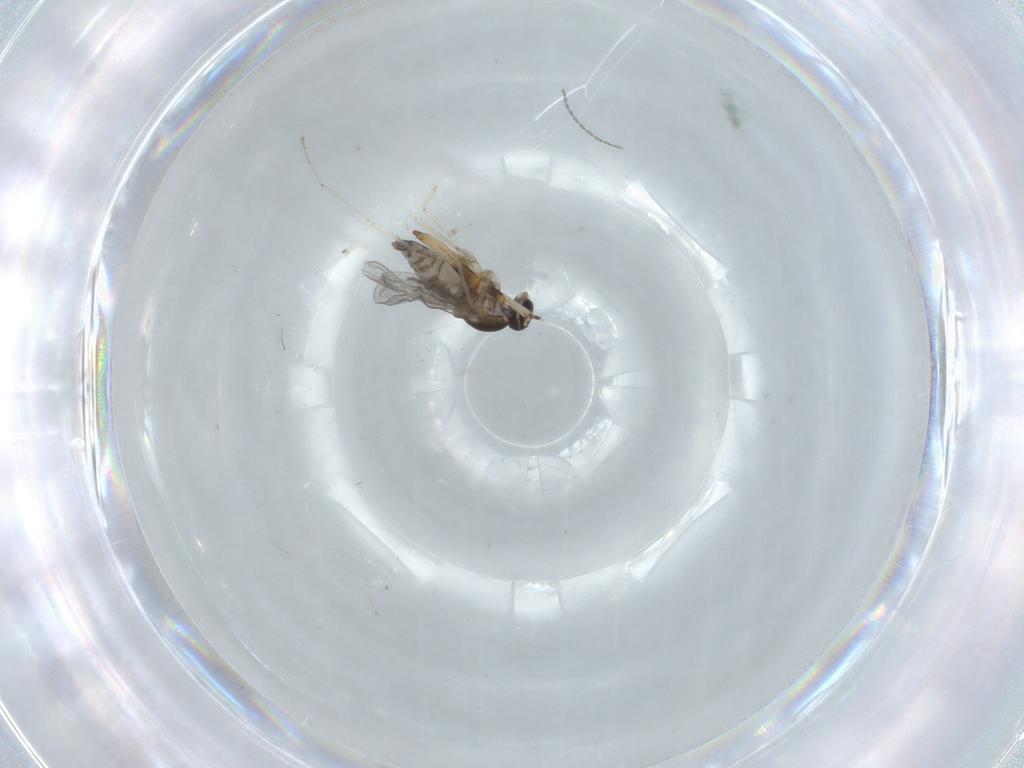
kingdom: Animalia
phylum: Arthropoda
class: Insecta
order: Diptera
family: Cecidomyiidae
